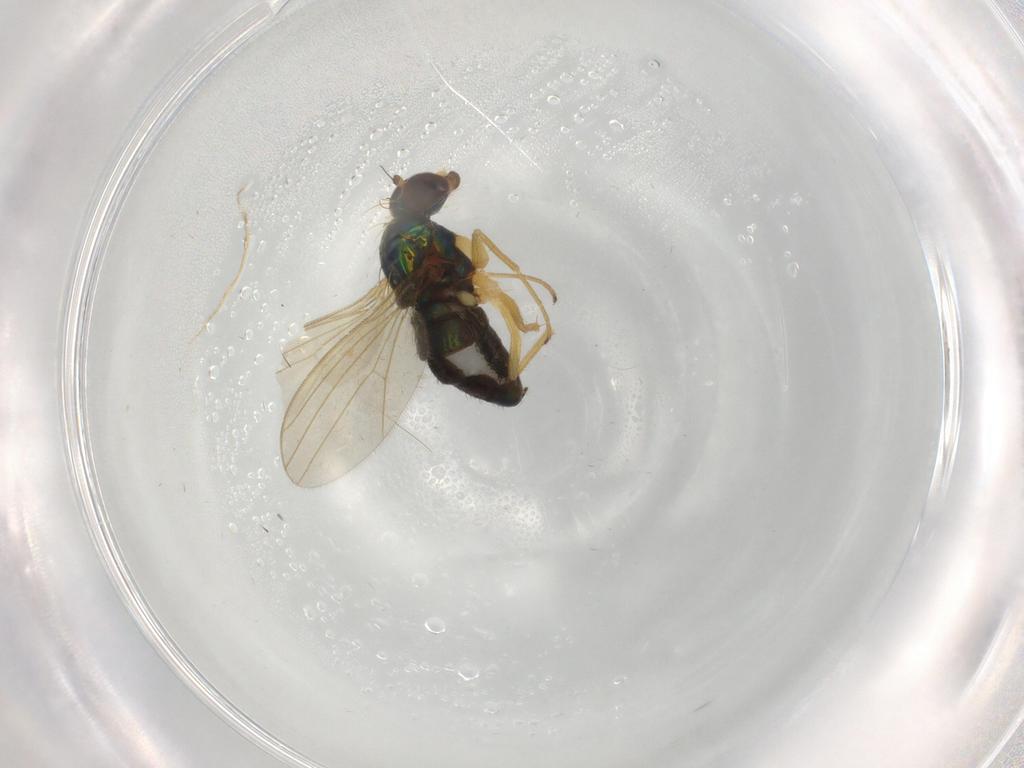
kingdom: Animalia
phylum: Arthropoda
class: Insecta
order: Diptera
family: Dolichopodidae
